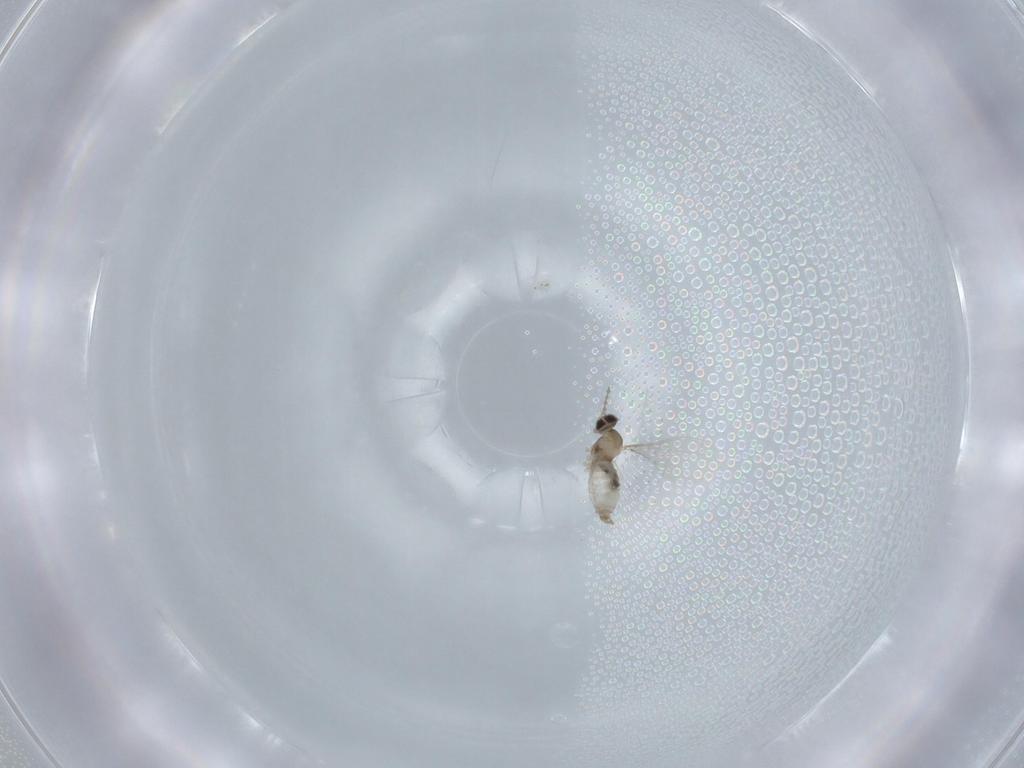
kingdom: Animalia
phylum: Arthropoda
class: Insecta
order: Diptera
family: Cecidomyiidae
